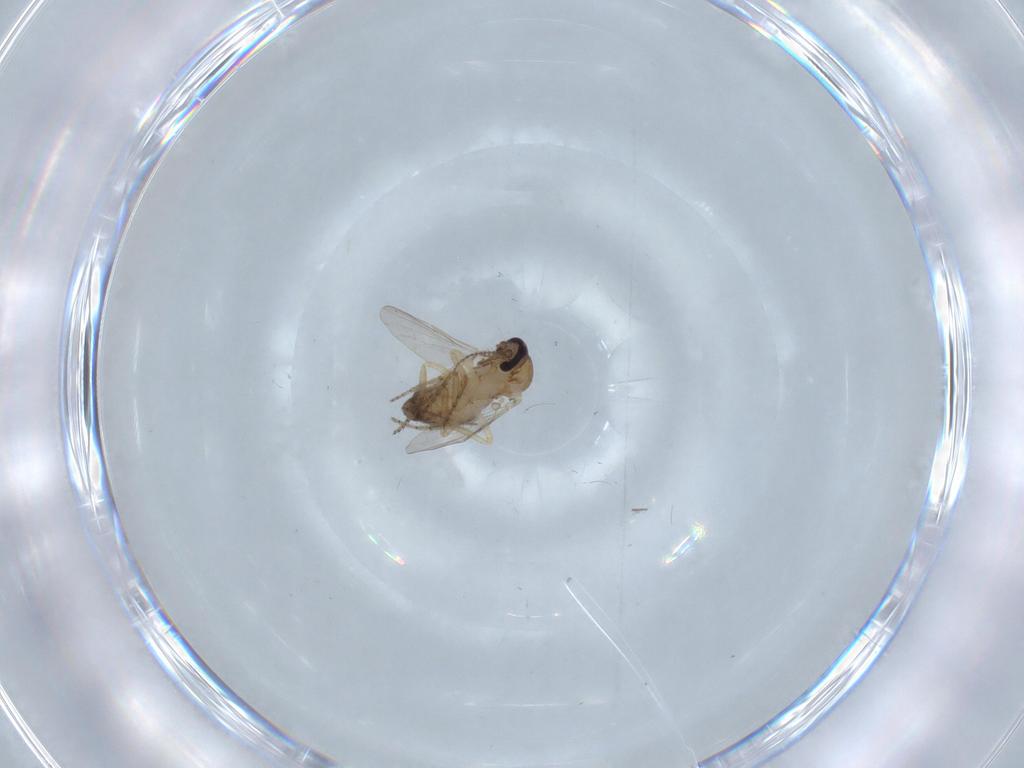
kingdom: Animalia
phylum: Arthropoda
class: Insecta
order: Diptera
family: Ceratopogonidae
